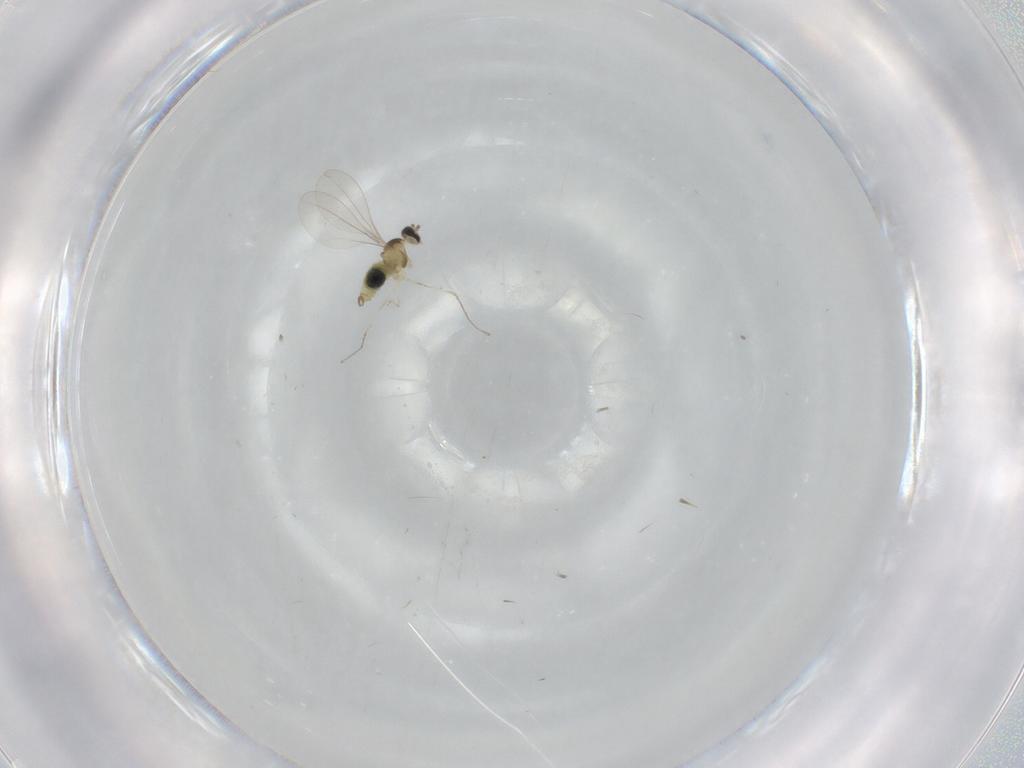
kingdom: Animalia
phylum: Arthropoda
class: Insecta
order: Diptera
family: Cecidomyiidae
